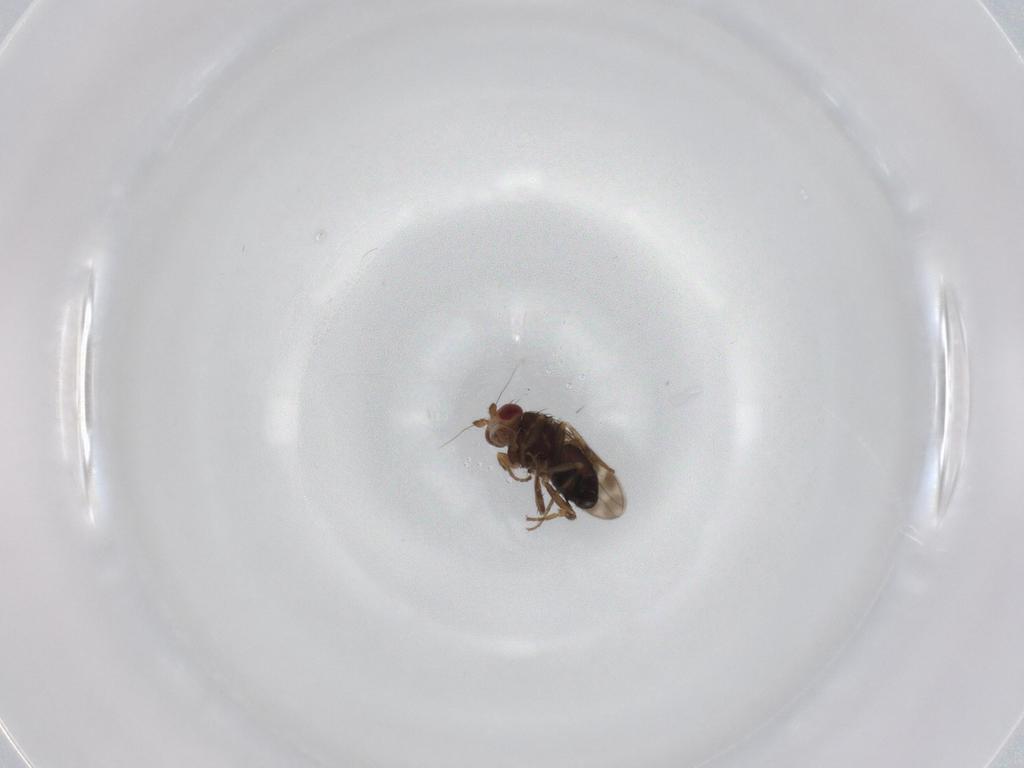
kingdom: Animalia
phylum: Arthropoda
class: Insecta
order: Diptera
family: Sphaeroceridae
